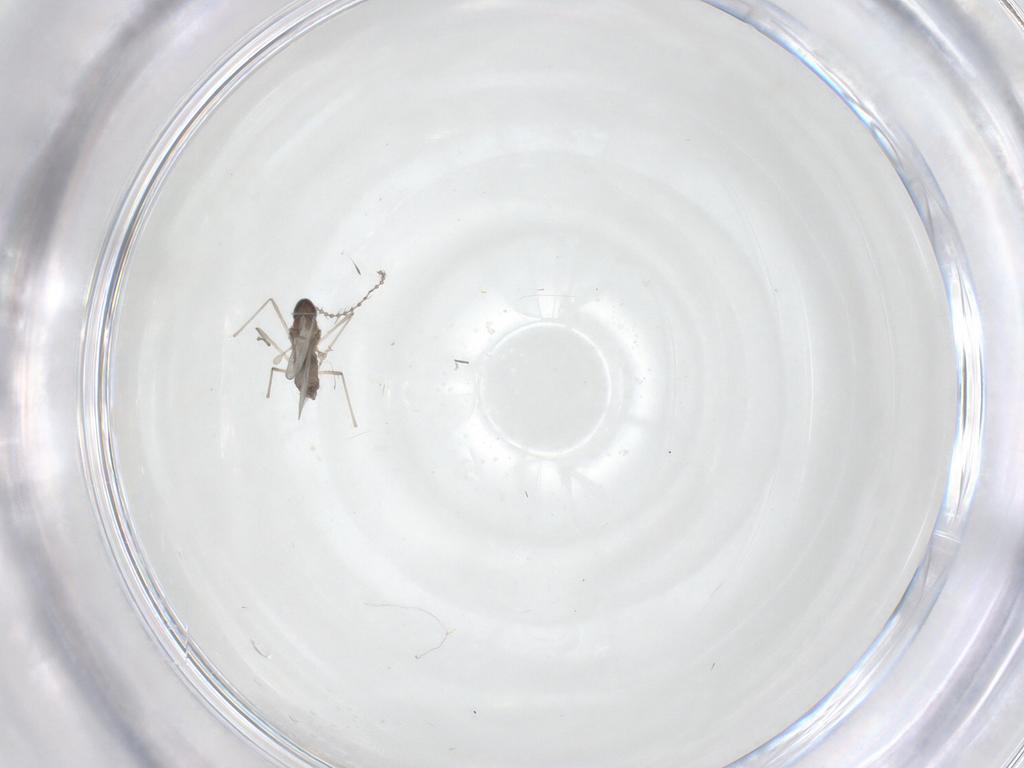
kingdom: Animalia
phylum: Arthropoda
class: Insecta
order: Diptera
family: Cecidomyiidae
